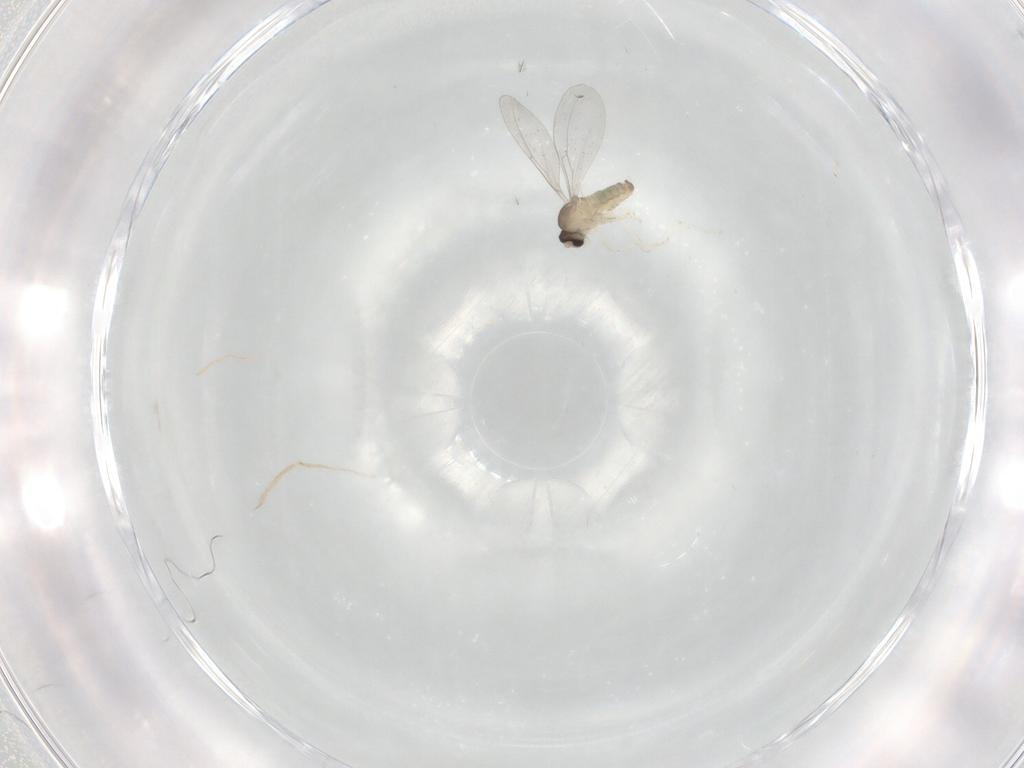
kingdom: Animalia
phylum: Arthropoda
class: Insecta
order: Diptera
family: Chironomidae
